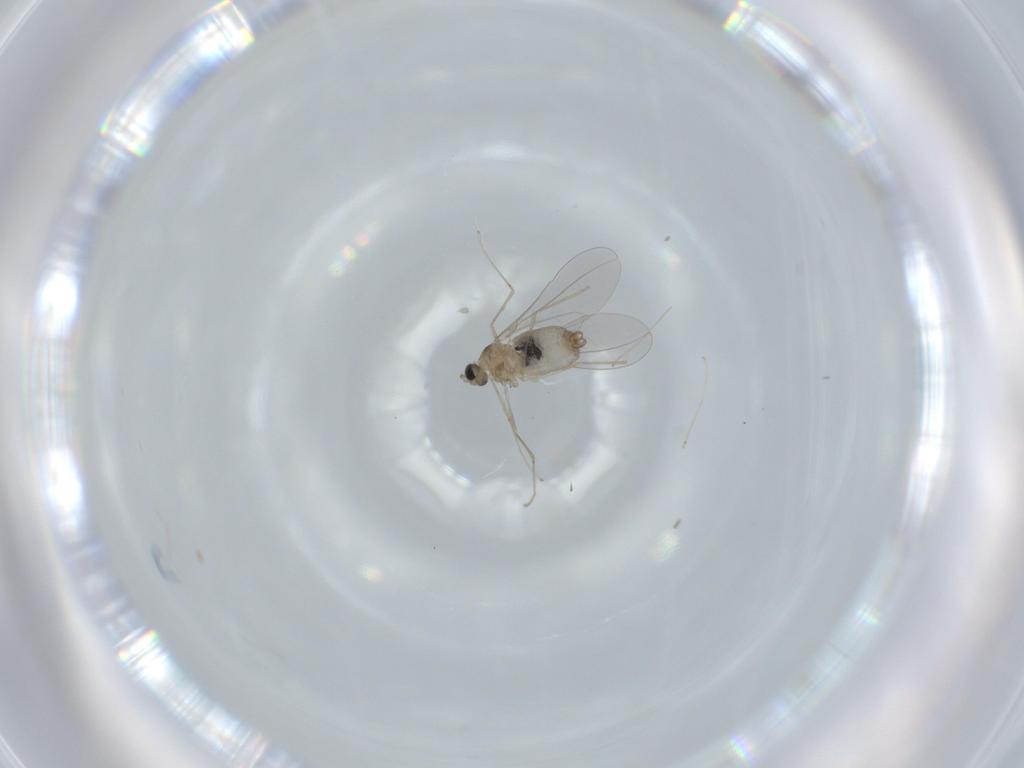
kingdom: Animalia
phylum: Arthropoda
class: Insecta
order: Diptera
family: Cecidomyiidae
